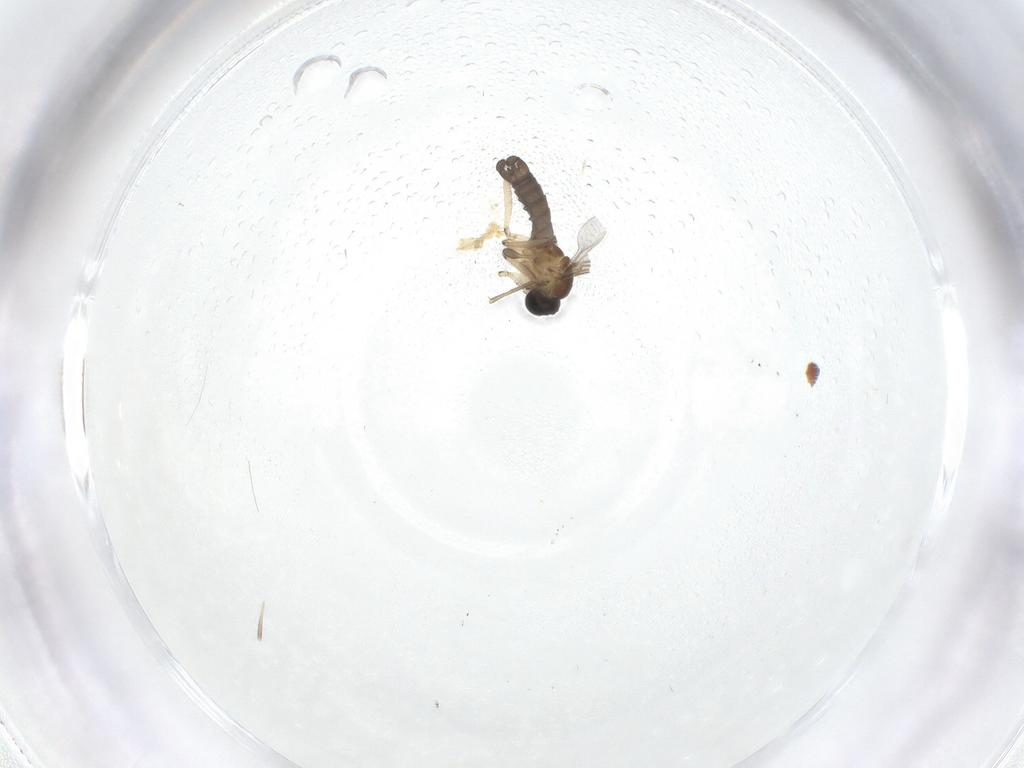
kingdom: Animalia
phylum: Arthropoda
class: Insecta
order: Diptera
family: Sciaridae
